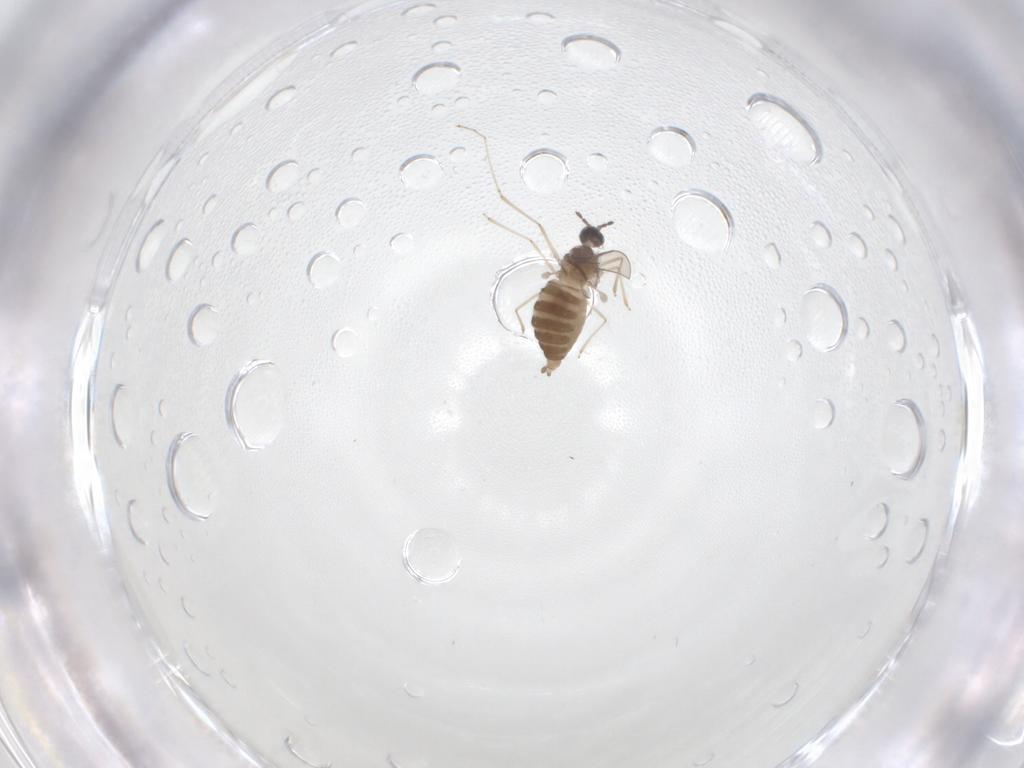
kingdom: Animalia
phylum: Arthropoda
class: Insecta
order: Diptera
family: Cecidomyiidae
